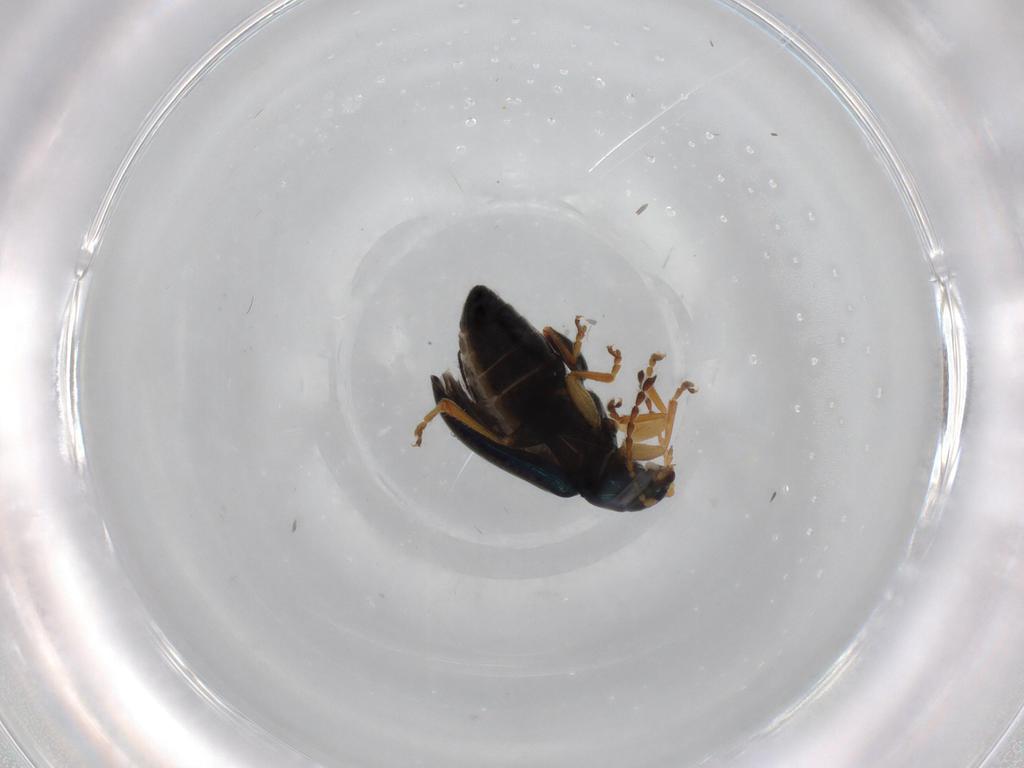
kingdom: Animalia
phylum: Arthropoda
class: Insecta
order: Coleoptera
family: Chrysomelidae
